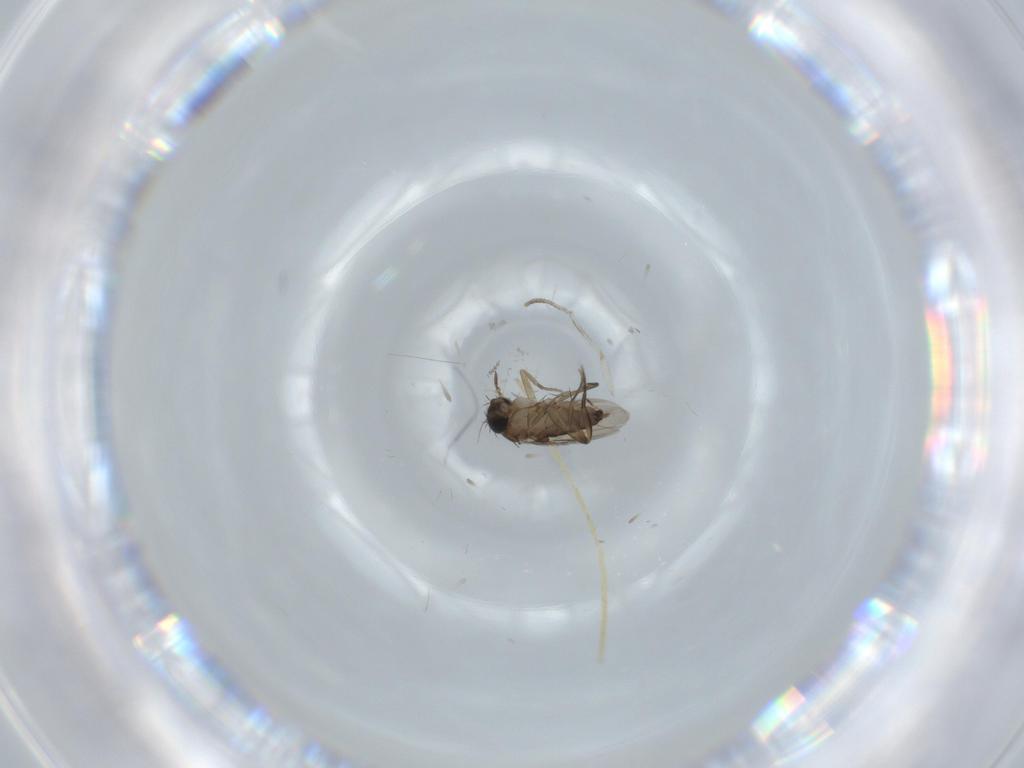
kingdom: Animalia
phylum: Arthropoda
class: Insecta
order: Diptera
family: Phoridae
